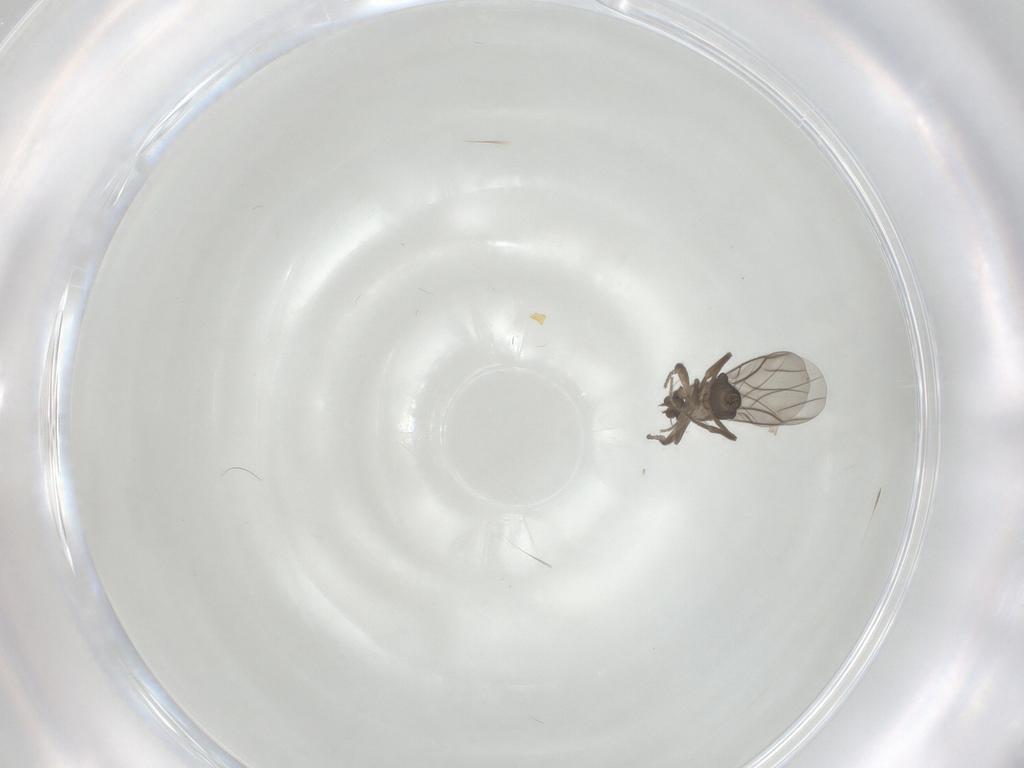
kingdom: Animalia
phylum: Arthropoda
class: Insecta
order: Diptera
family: Phoridae
